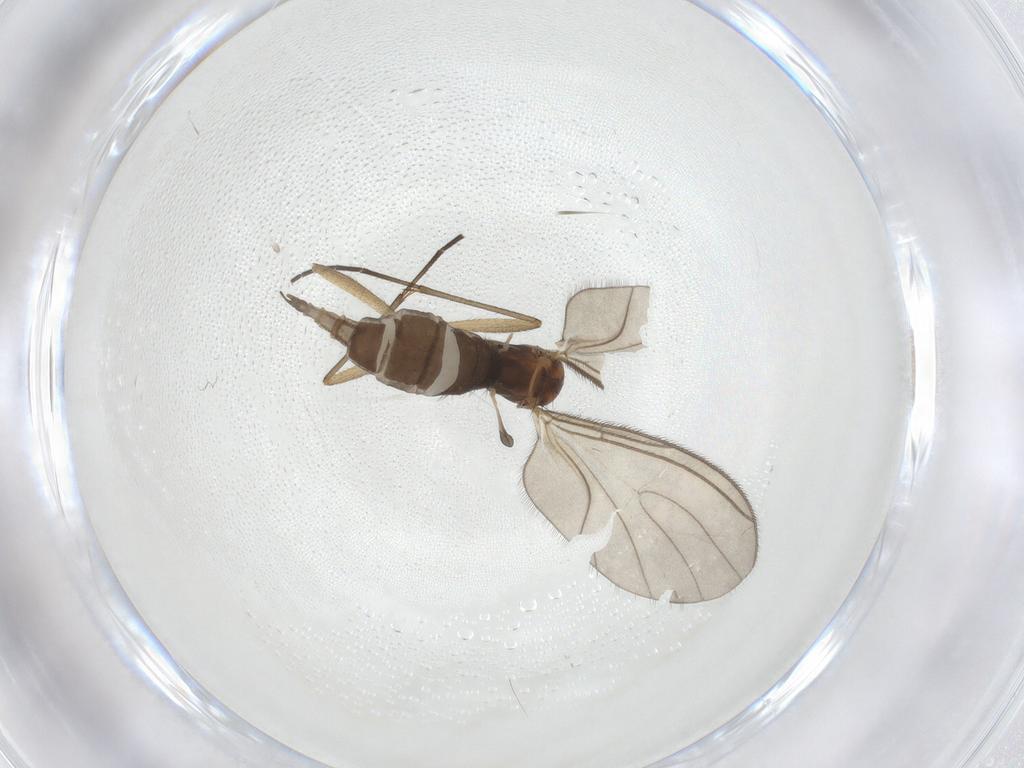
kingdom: Animalia
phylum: Arthropoda
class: Insecta
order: Diptera
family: Sciaridae
